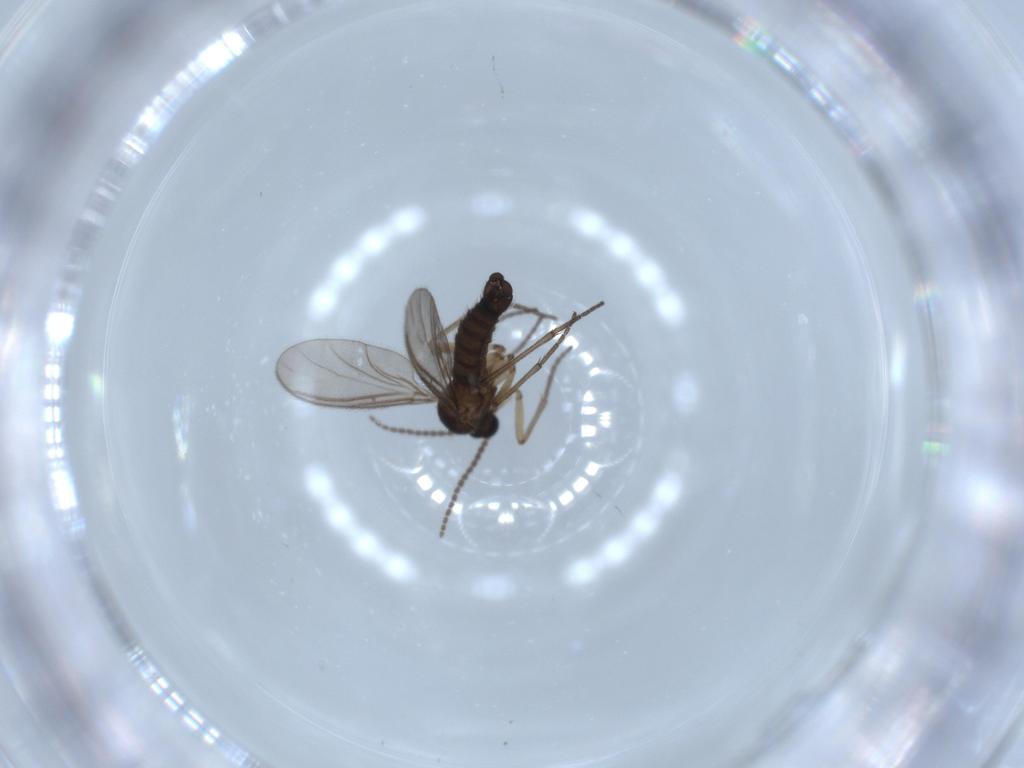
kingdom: Animalia
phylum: Arthropoda
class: Insecta
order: Diptera
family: Sciaridae
